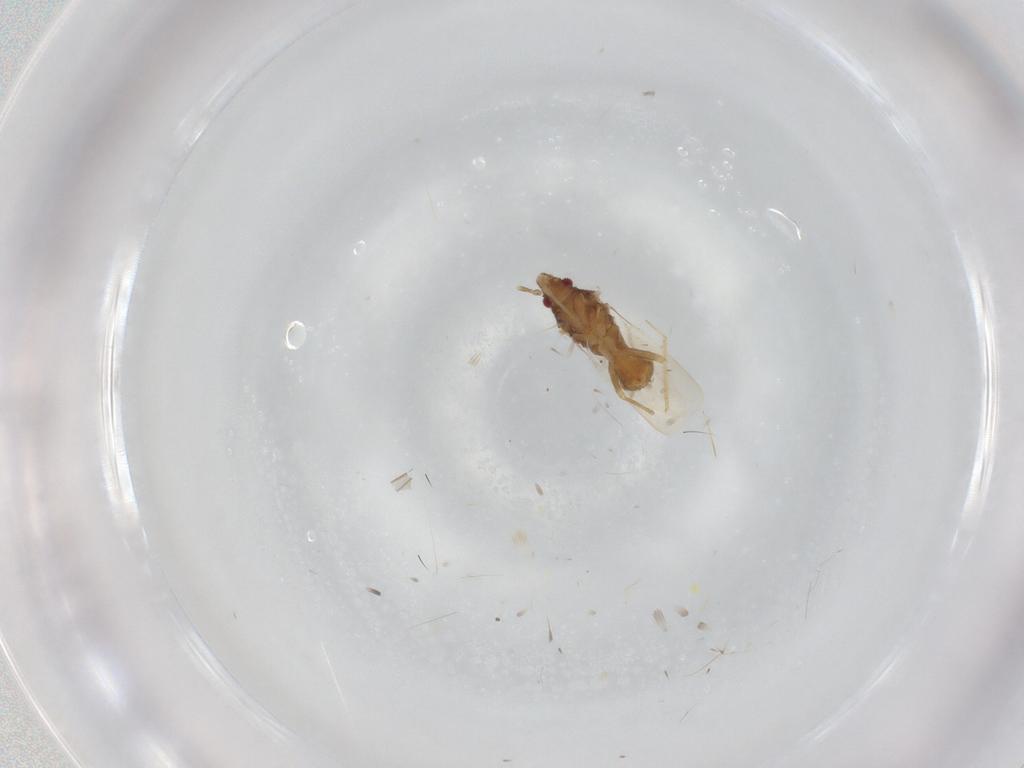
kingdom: Animalia
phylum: Arthropoda
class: Insecta
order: Hemiptera
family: Ceratocombidae
